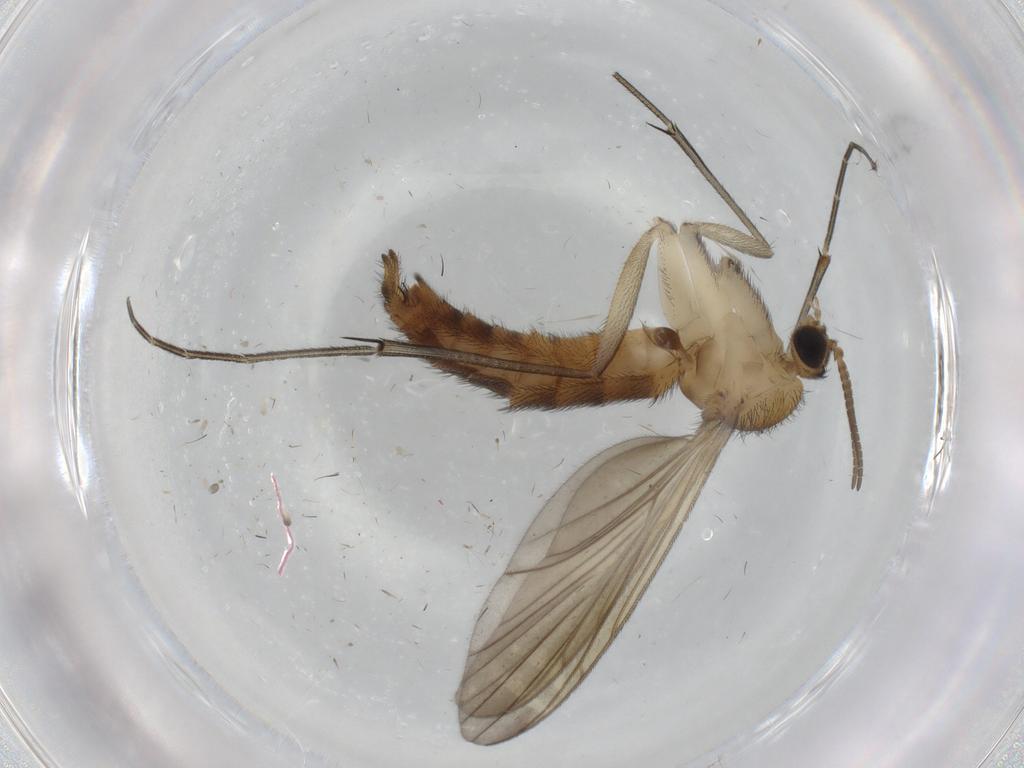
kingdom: Animalia
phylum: Arthropoda
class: Insecta
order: Diptera
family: Keroplatidae
